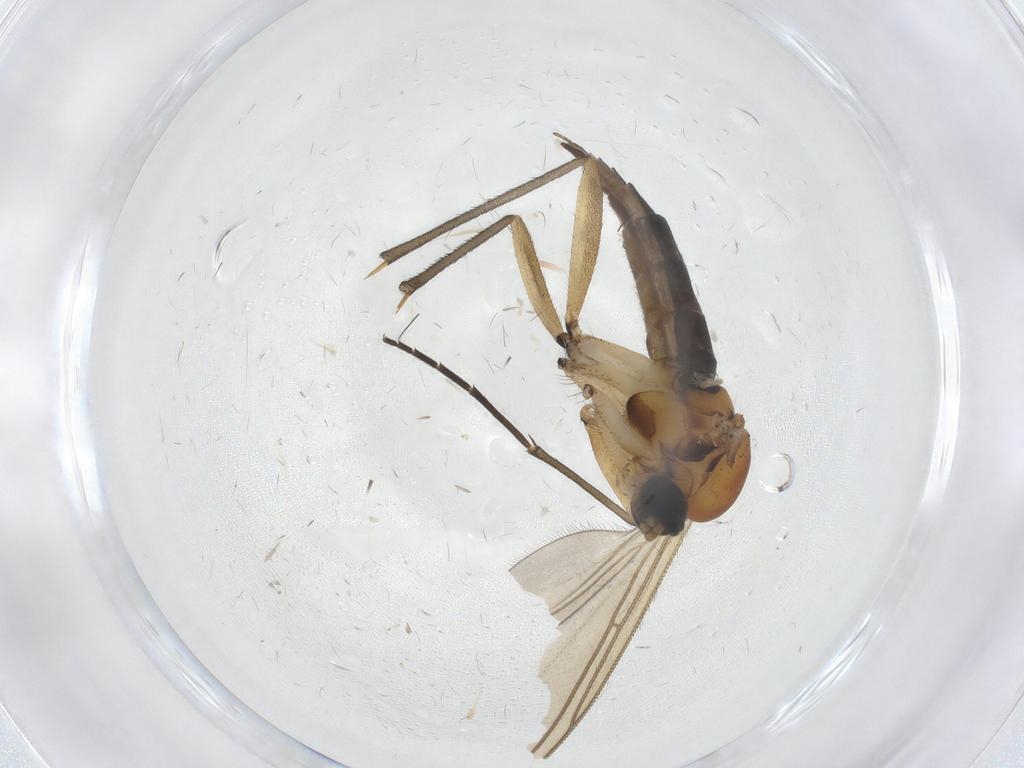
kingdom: Animalia
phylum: Arthropoda
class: Insecta
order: Diptera
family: Sciaridae
